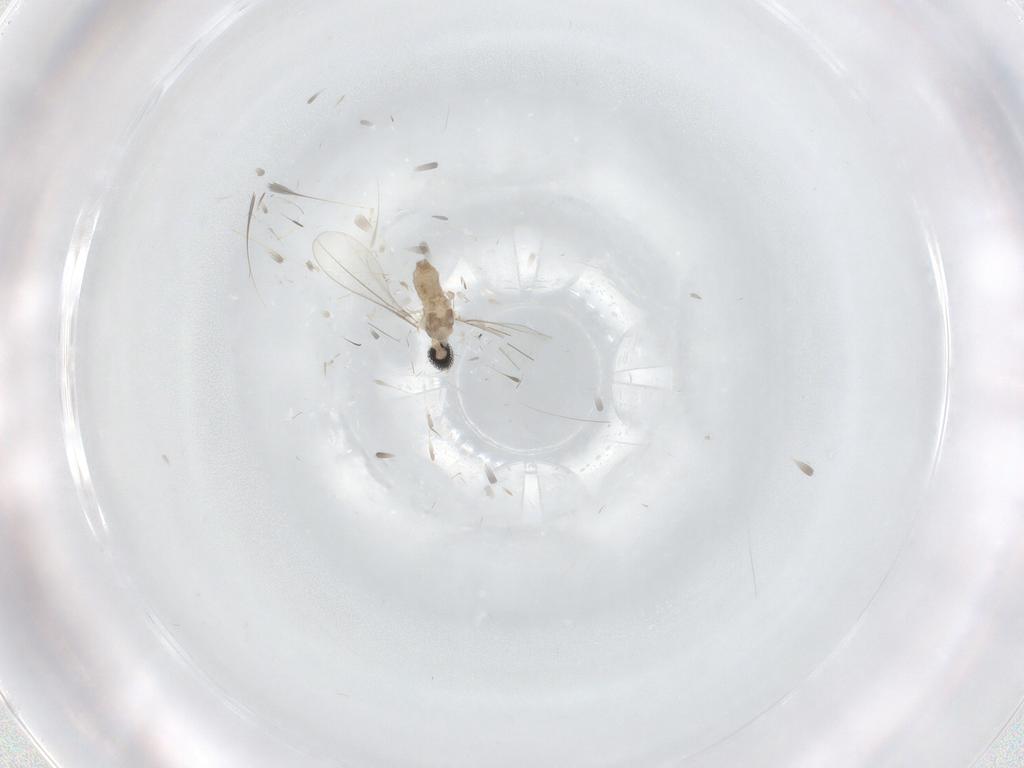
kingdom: Animalia
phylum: Arthropoda
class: Insecta
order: Diptera
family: Cecidomyiidae
